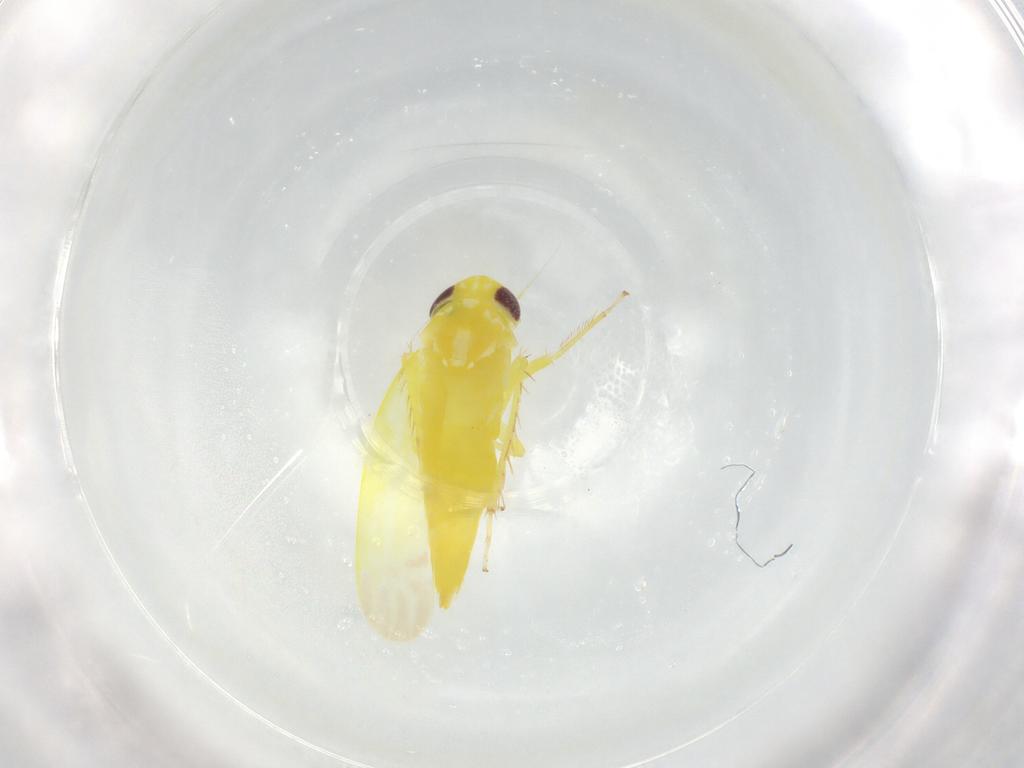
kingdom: Animalia
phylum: Arthropoda
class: Insecta
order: Hemiptera
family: Cicadellidae
